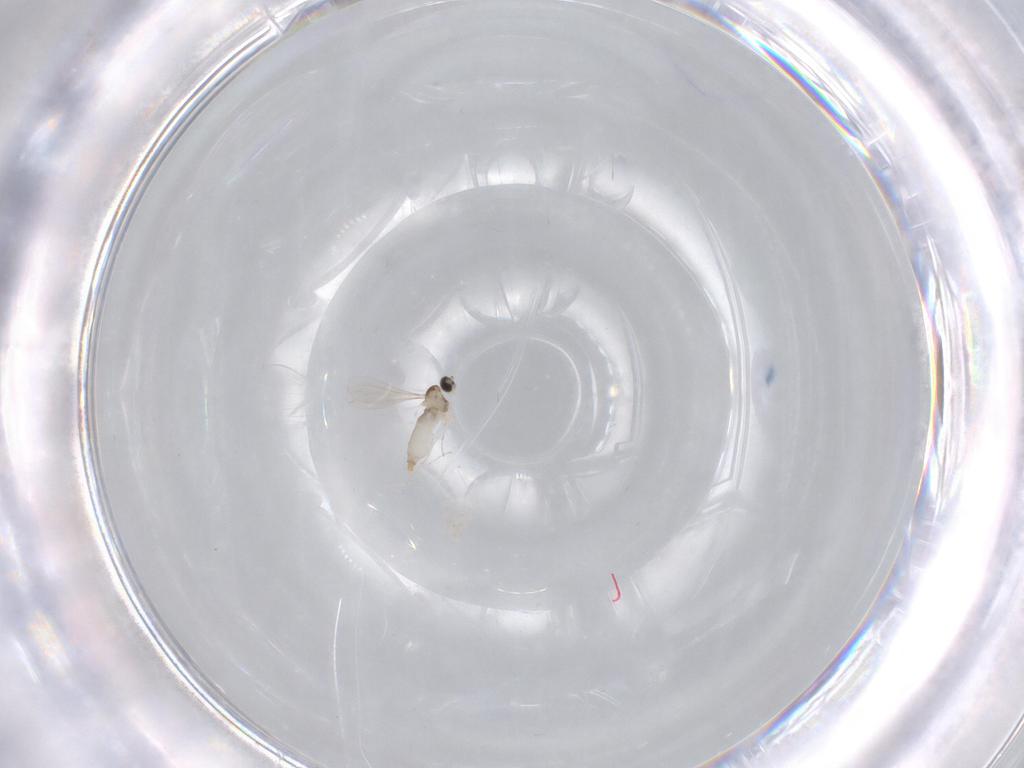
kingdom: Animalia
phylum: Arthropoda
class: Insecta
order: Diptera
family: Cecidomyiidae
